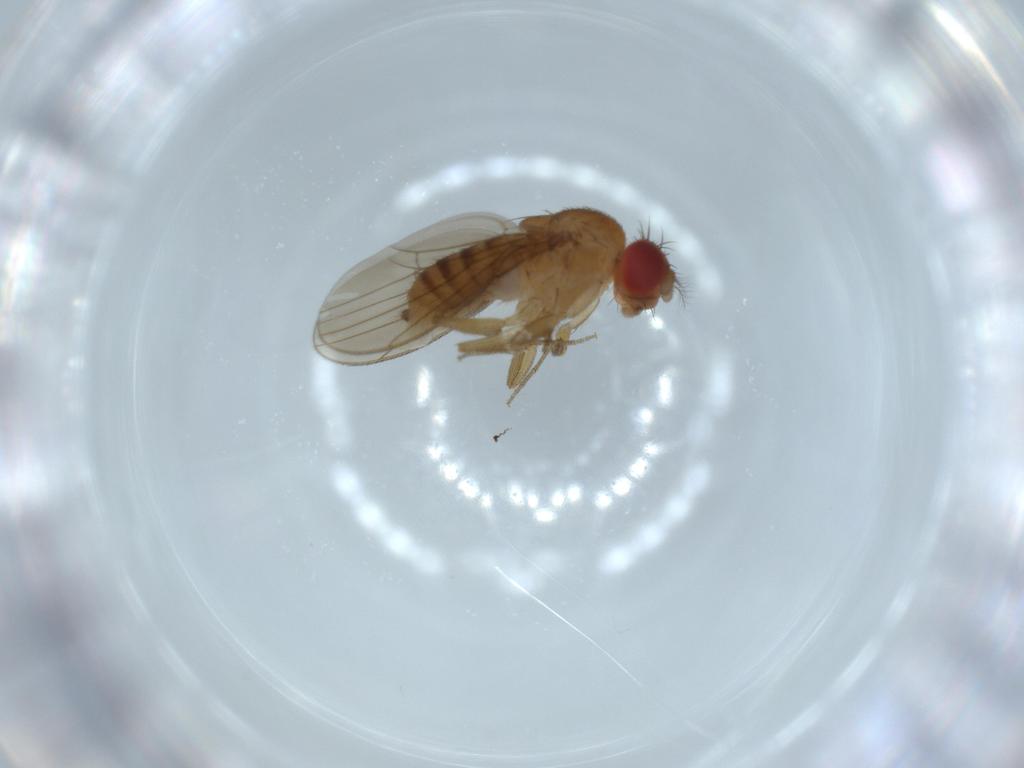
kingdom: Animalia
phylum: Arthropoda
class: Insecta
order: Diptera
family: Drosophilidae
